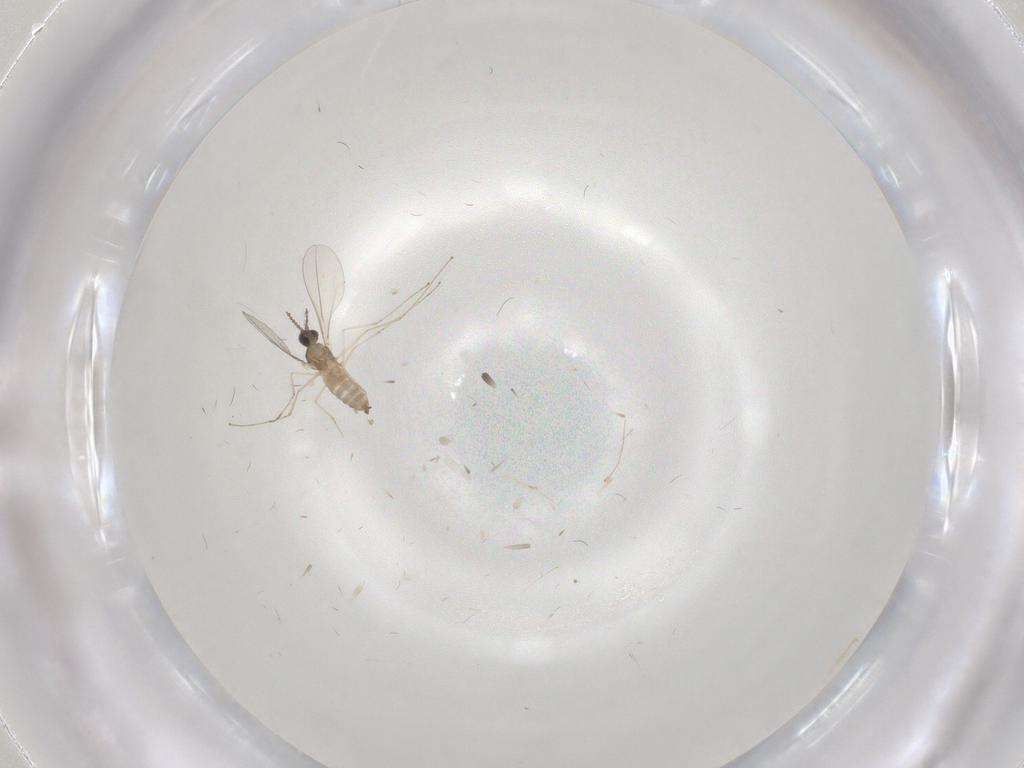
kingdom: Animalia
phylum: Arthropoda
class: Insecta
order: Diptera
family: Cecidomyiidae
